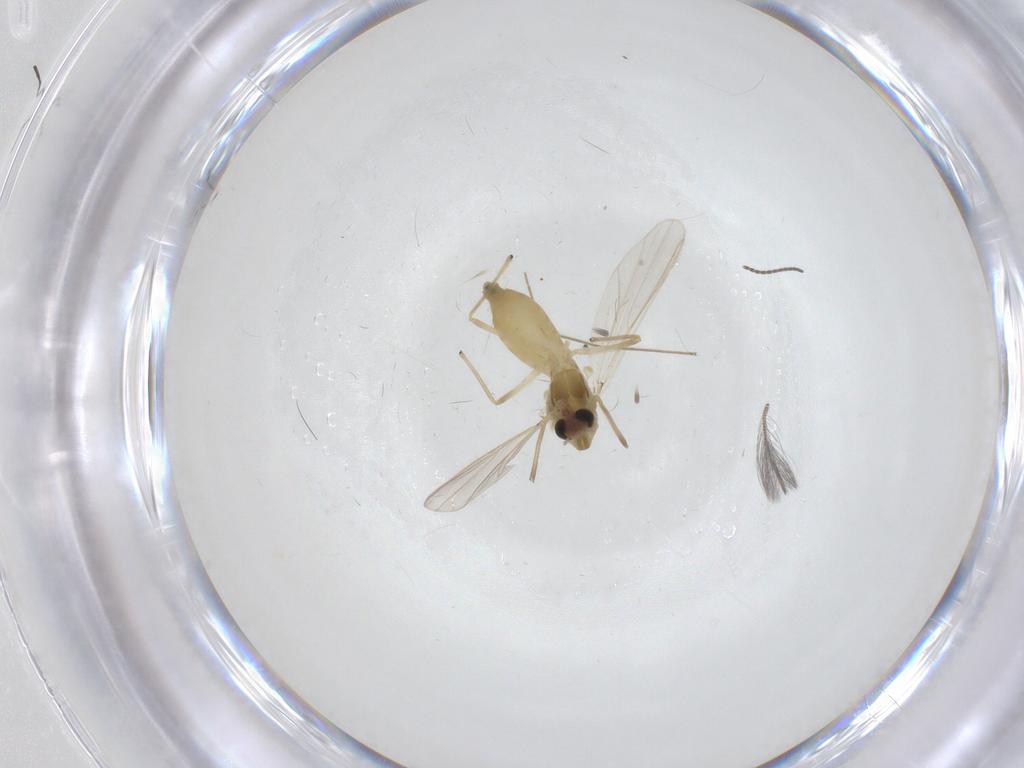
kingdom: Animalia
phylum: Arthropoda
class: Insecta
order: Diptera
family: Chironomidae
